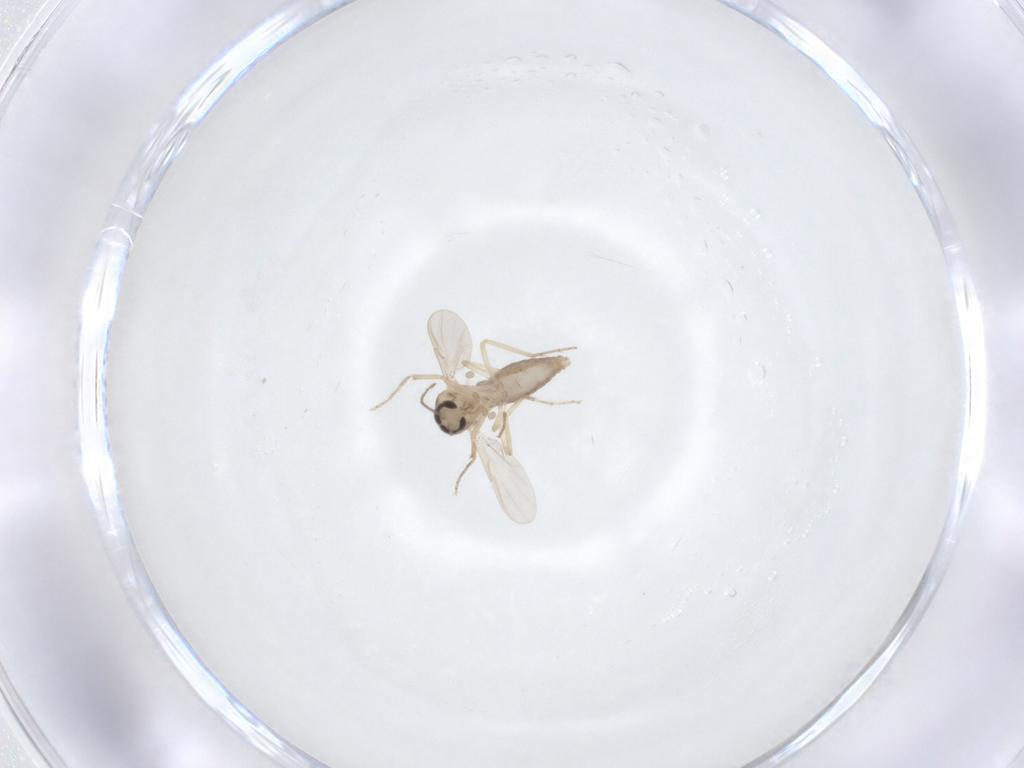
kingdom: Animalia
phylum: Arthropoda
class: Insecta
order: Diptera
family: Ceratopogonidae
